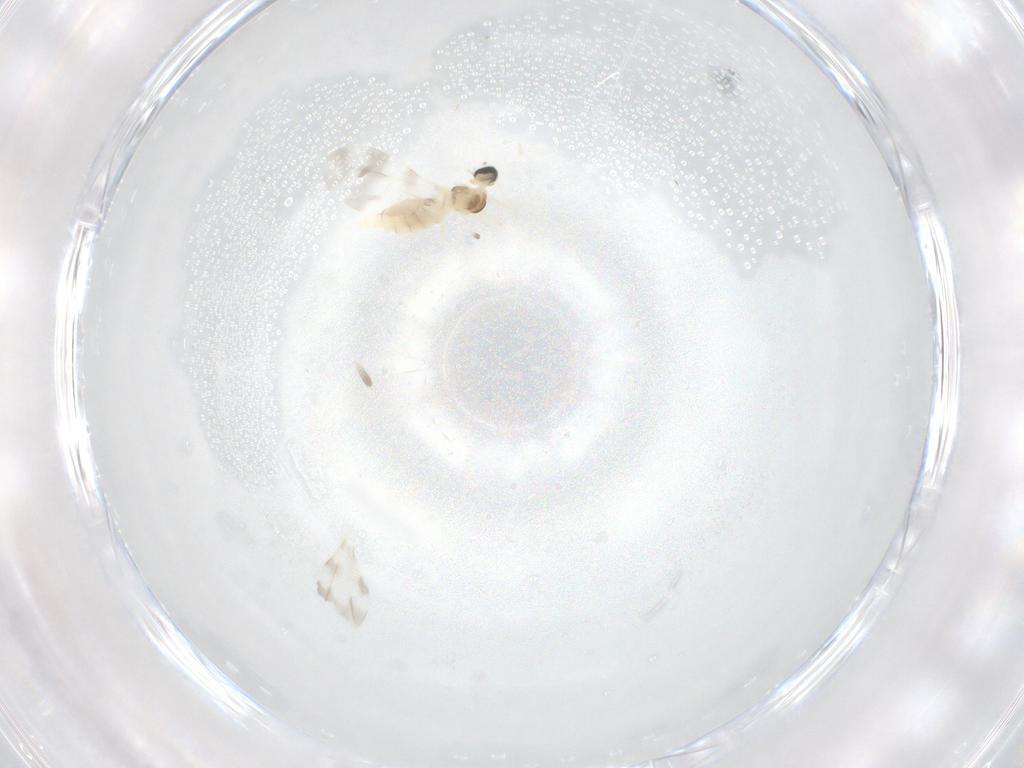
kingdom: Animalia
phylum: Arthropoda
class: Insecta
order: Diptera
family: Cecidomyiidae
